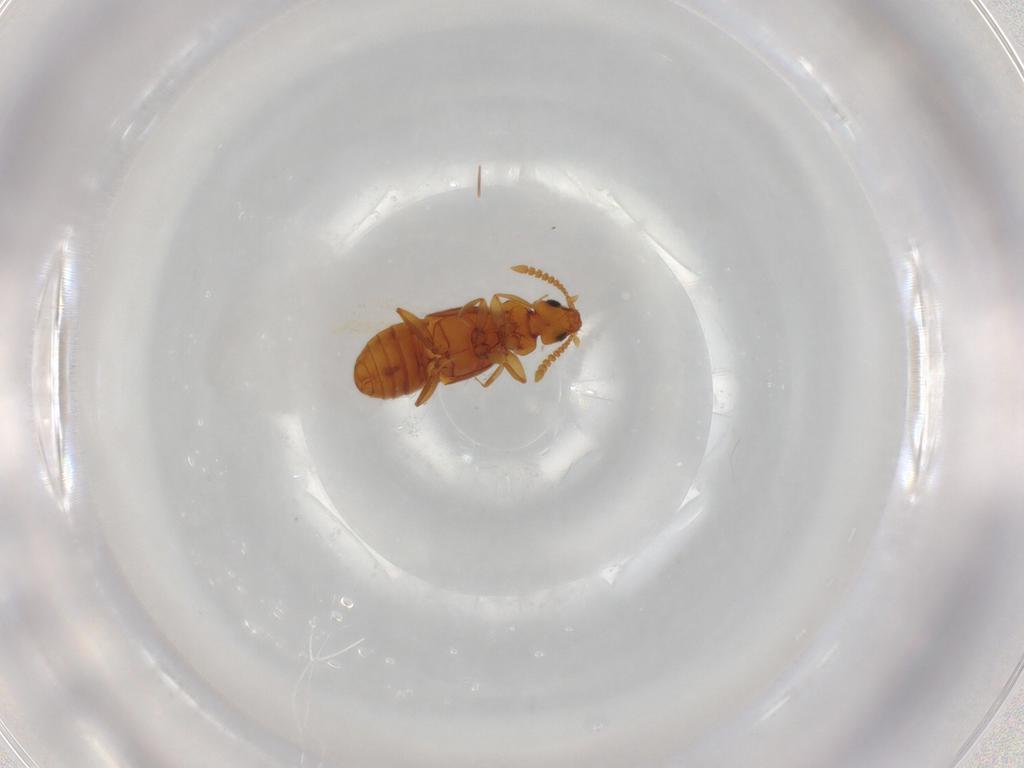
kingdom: Animalia
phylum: Arthropoda
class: Insecta
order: Coleoptera
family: Staphylinidae
